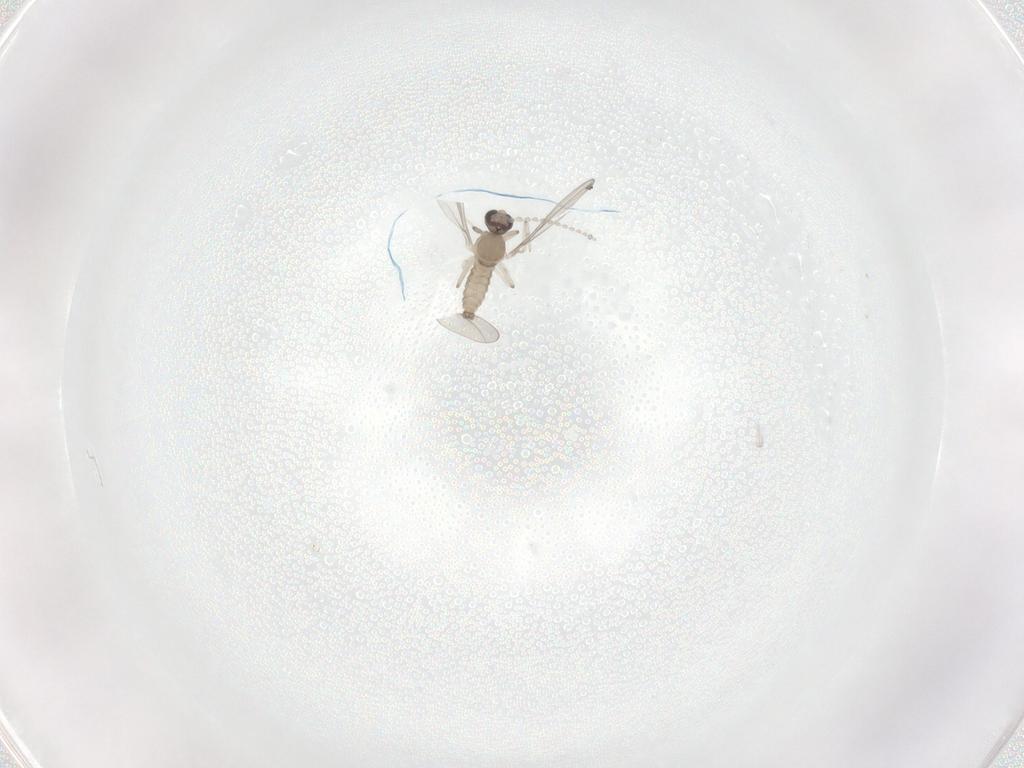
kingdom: Animalia
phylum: Arthropoda
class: Insecta
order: Diptera
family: Cecidomyiidae
